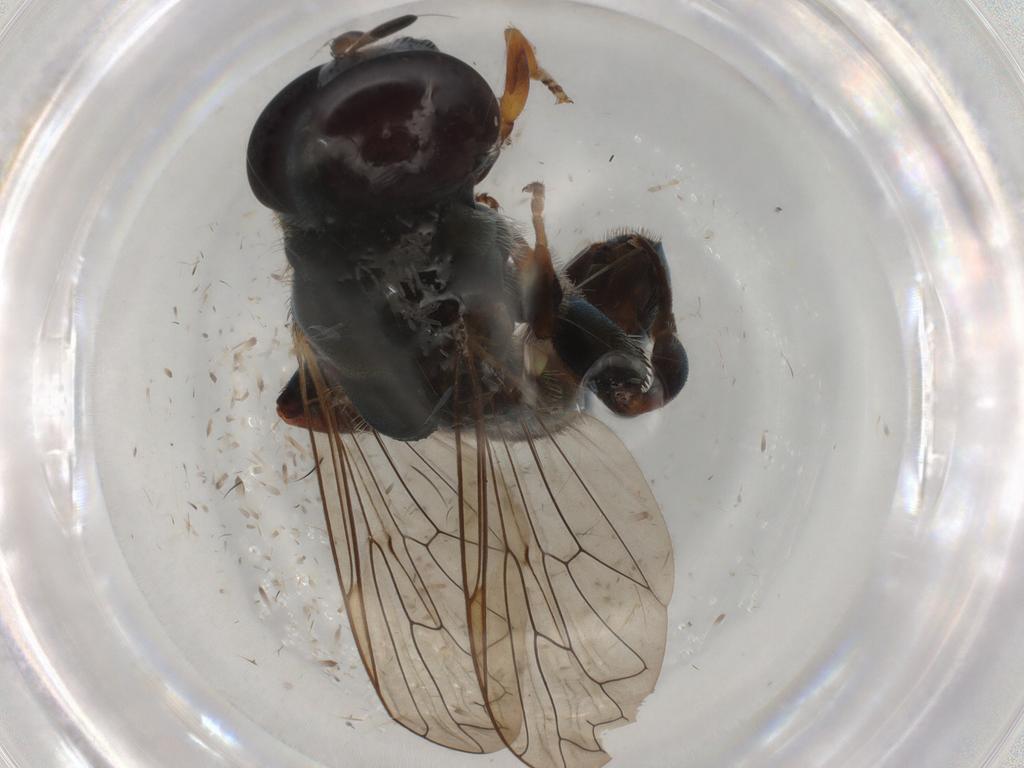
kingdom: Animalia
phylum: Arthropoda
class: Insecta
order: Diptera
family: Syrphidae
